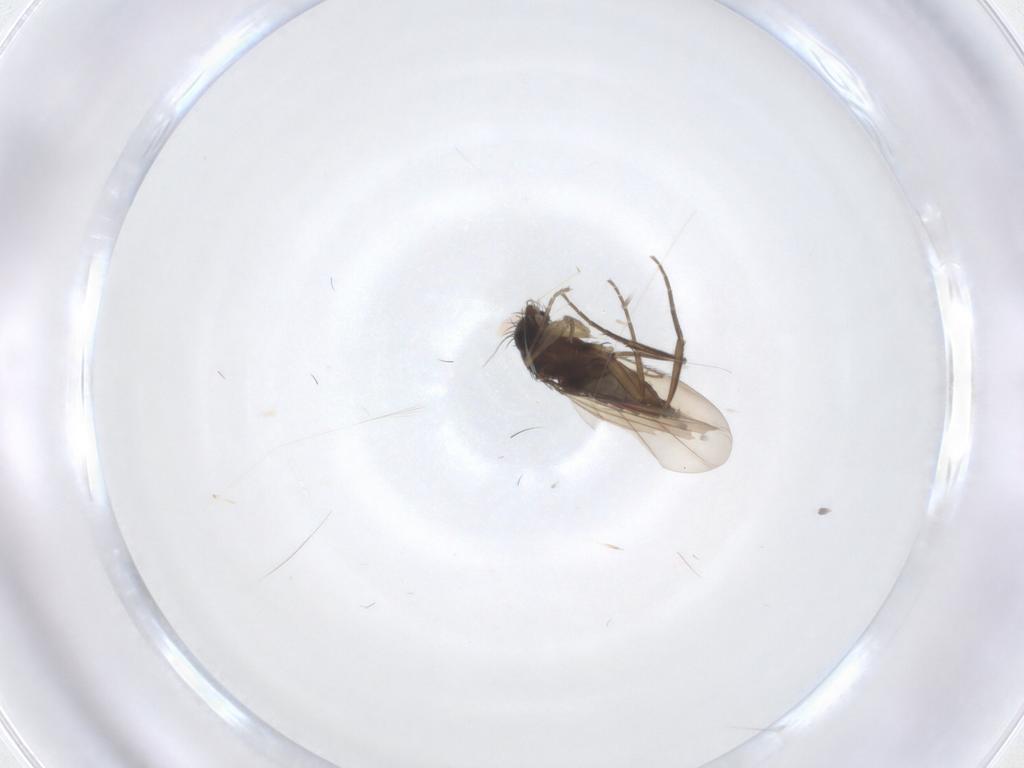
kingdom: Animalia
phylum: Arthropoda
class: Insecta
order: Diptera
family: Phoridae
